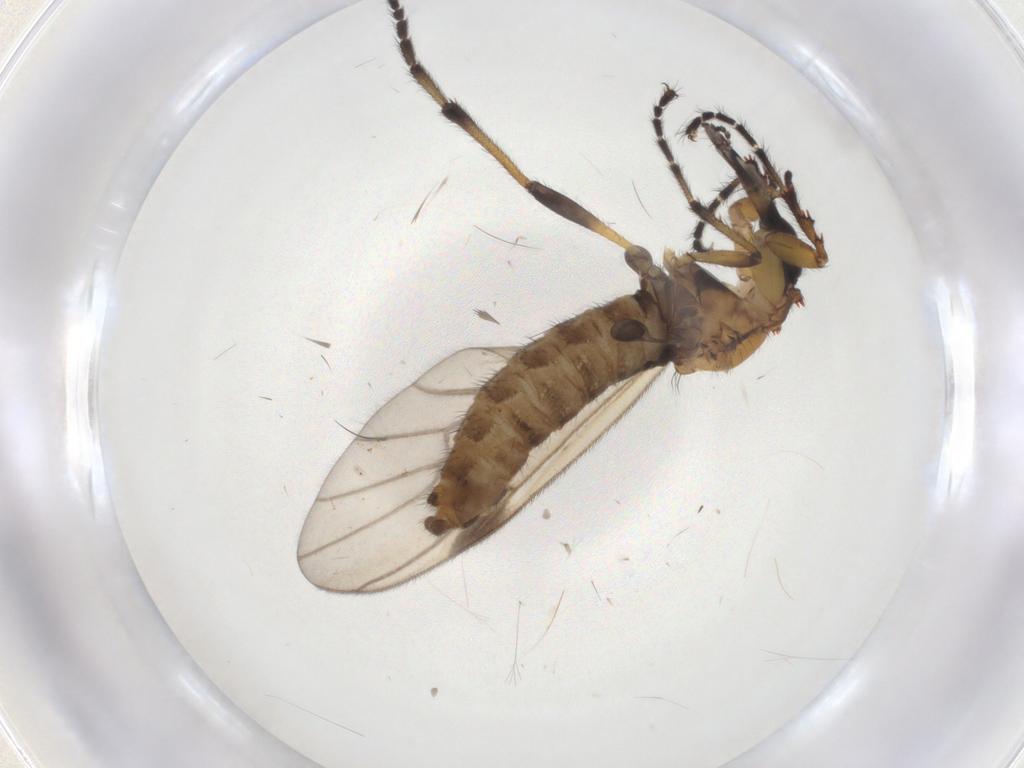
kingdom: Animalia
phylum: Arthropoda
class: Insecta
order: Diptera
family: Bibionidae
